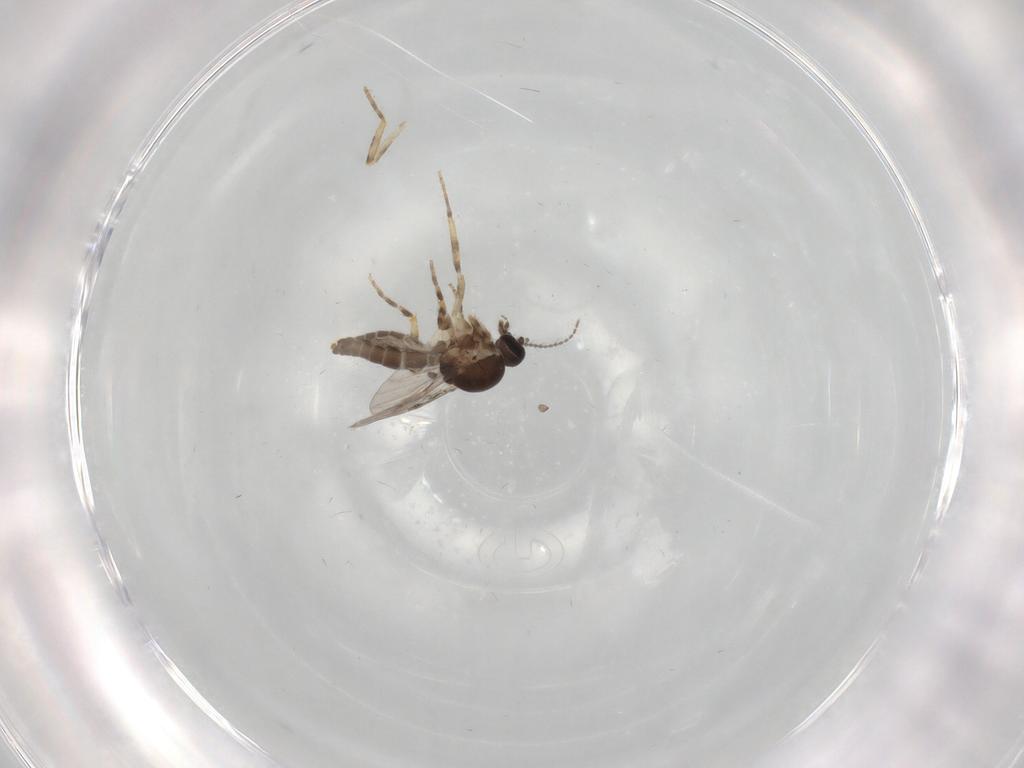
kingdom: Animalia
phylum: Arthropoda
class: Insecta
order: Diptera
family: Ceratopogonidae
